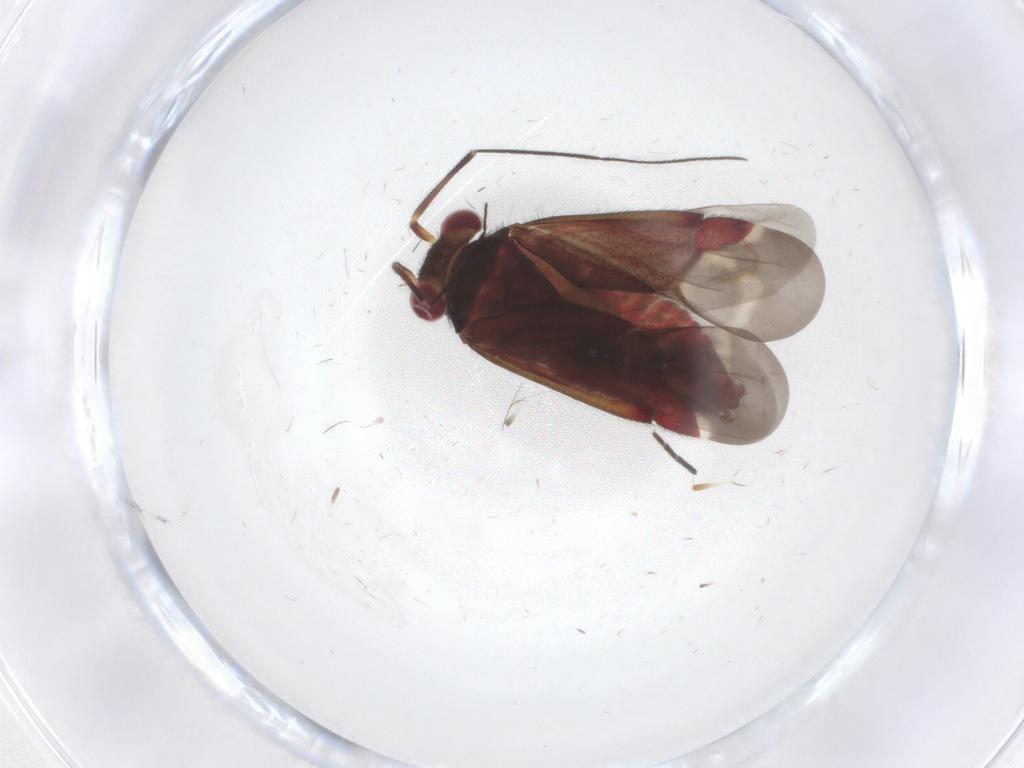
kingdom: Animalia
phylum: Arthropoda
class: Insecta
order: Hemiptera
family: Miridae
